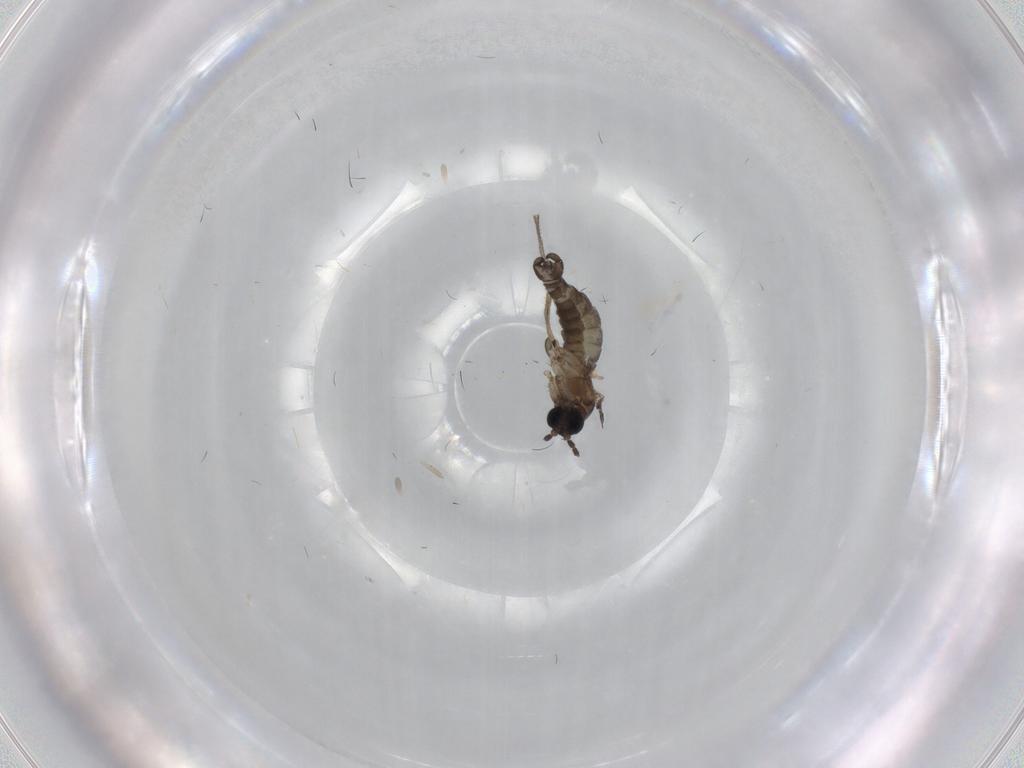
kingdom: Animalia
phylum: Arthropoda
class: Insecta
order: Diptera
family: Sciaridae
